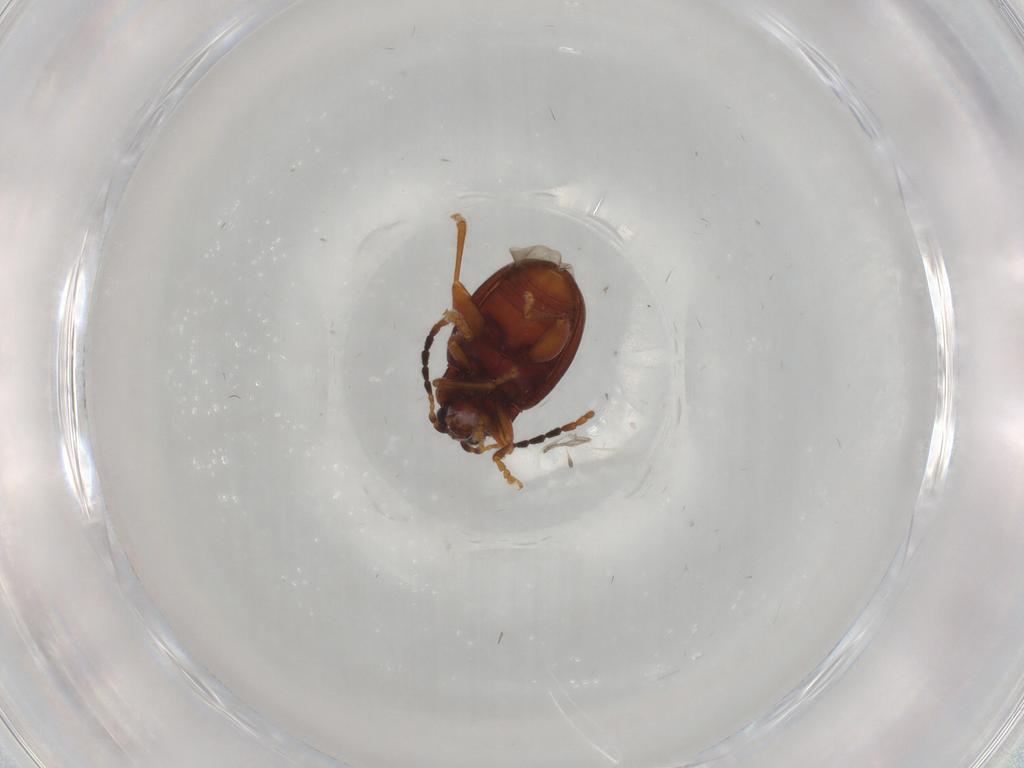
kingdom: Animalia
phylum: Arthropoda
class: Insecta
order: Coleoptera
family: Chrysomelidae
